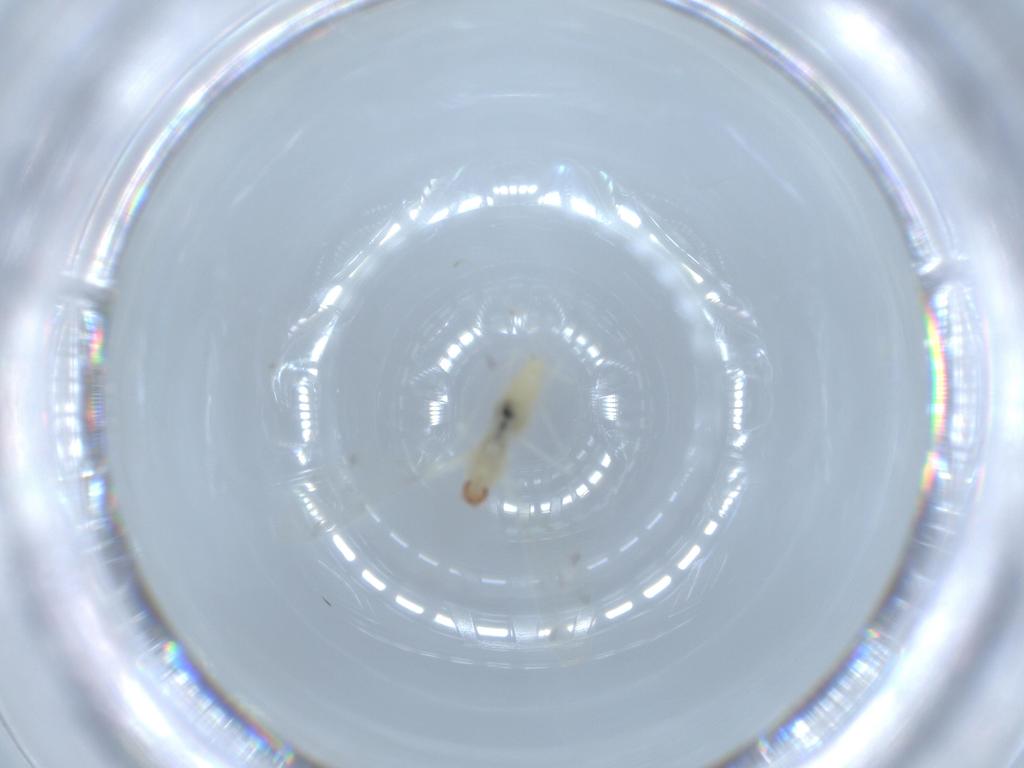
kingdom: Animalia
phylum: Arthropoda
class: Insecta
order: Diptera
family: Cecidomyiidae
